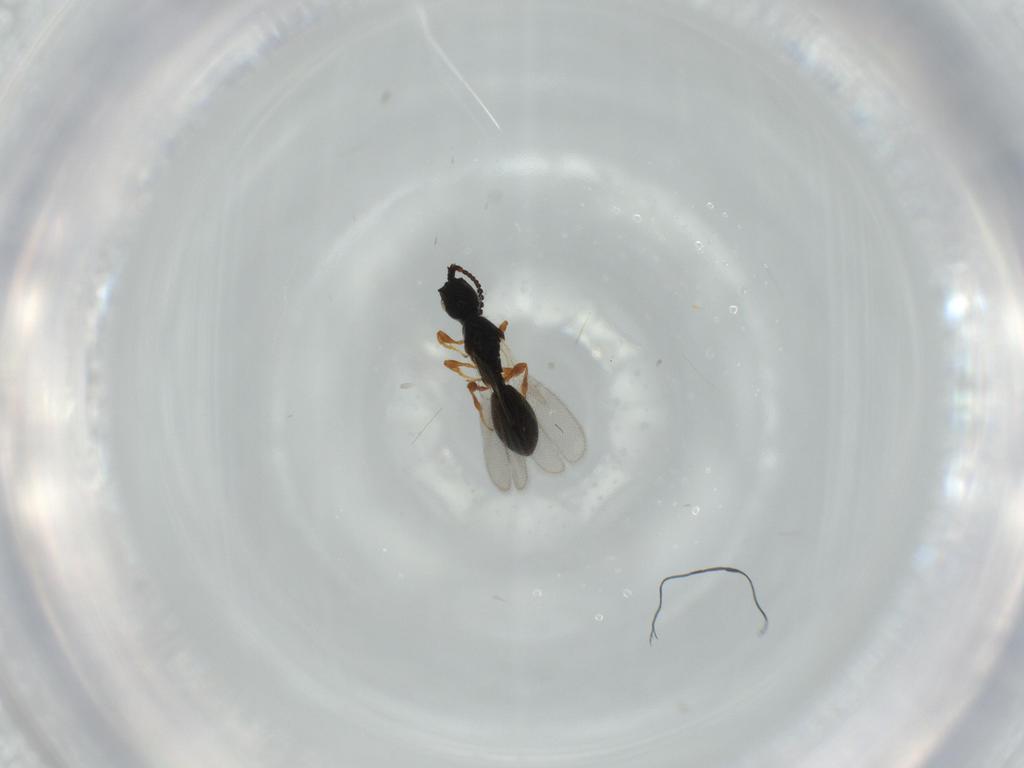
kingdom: Animalia
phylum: Arthropoda
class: Insecta
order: Hymenoptera
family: Diapriidae
